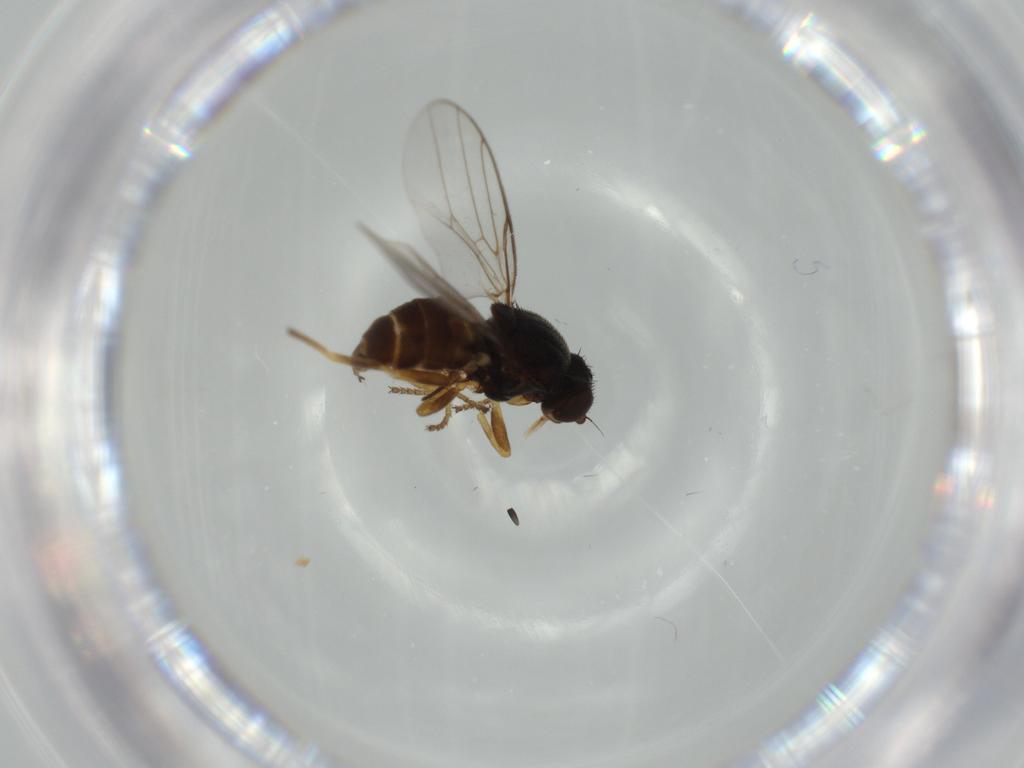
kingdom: Animalia
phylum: Arthropoda
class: Insecta
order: Diptera
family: Chloropidae
